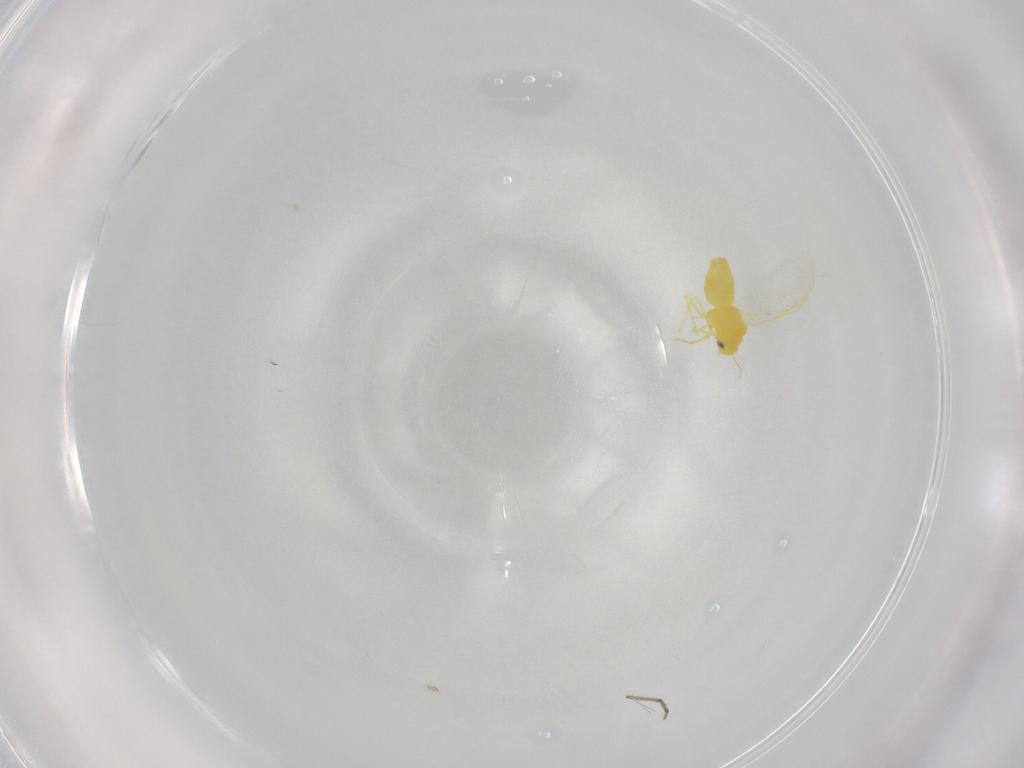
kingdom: Animalia
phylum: Arthropoda
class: Insecta
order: Hemiptera
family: Aleyrodidae
